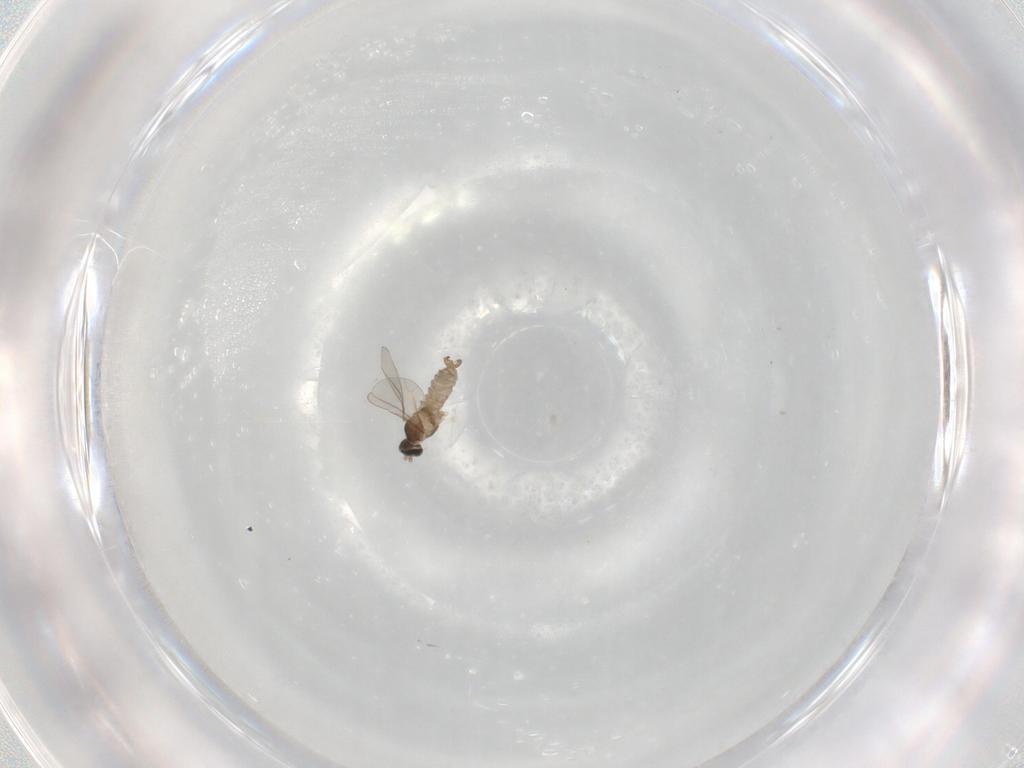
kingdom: Animalia
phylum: Arthropoda
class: Insecta
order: Diptera
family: Cecidomyiidae
